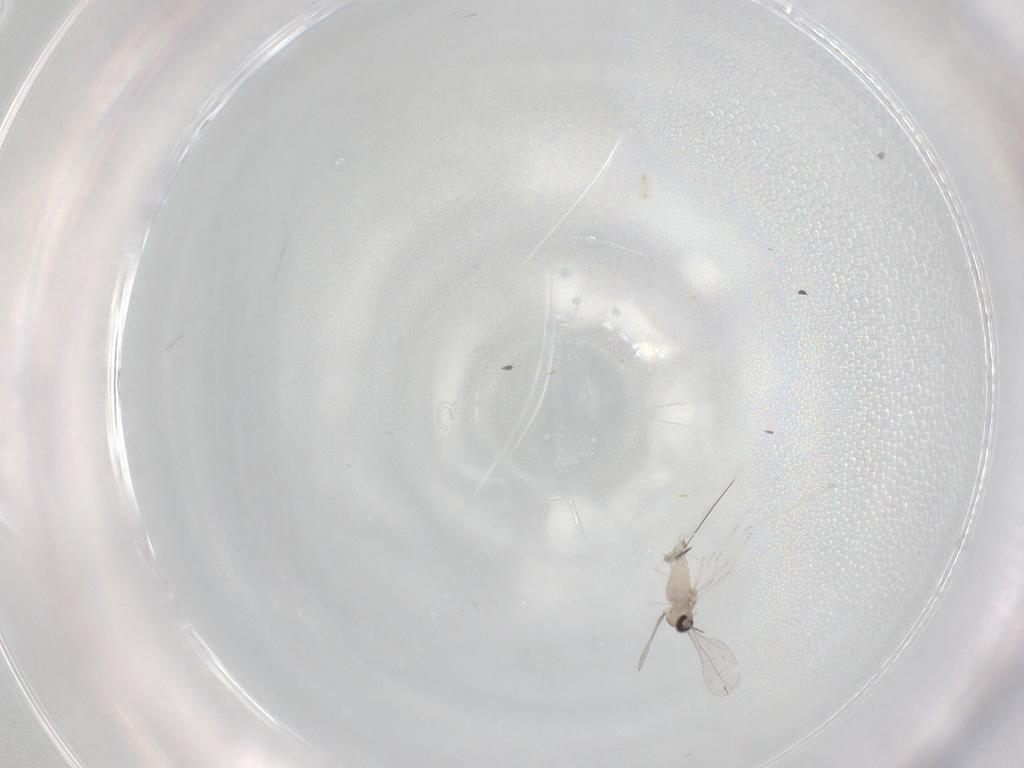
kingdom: Animalia
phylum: Arthropoda
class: Insecta
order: Diptera
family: Cecidomyiidae
